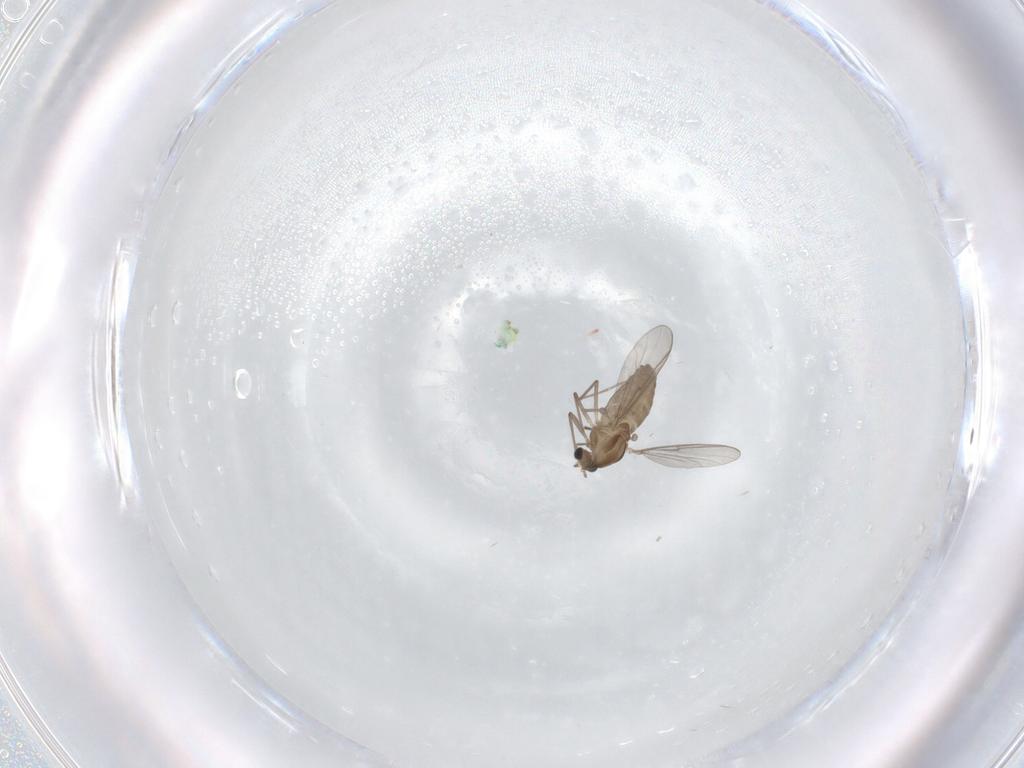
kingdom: Animalia
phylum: Arthropoda
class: Insecta
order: Diptera
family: Chironomidae
